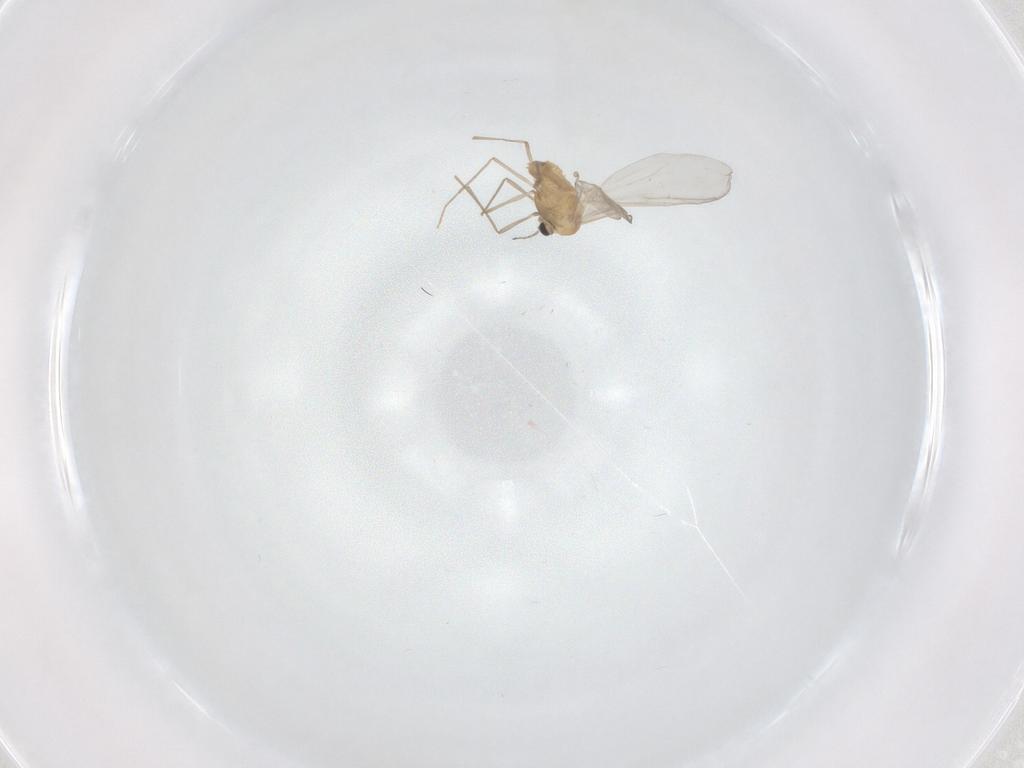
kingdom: Animalia
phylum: Arthropoda
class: Insecta
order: Diptera
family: Chironomidae
